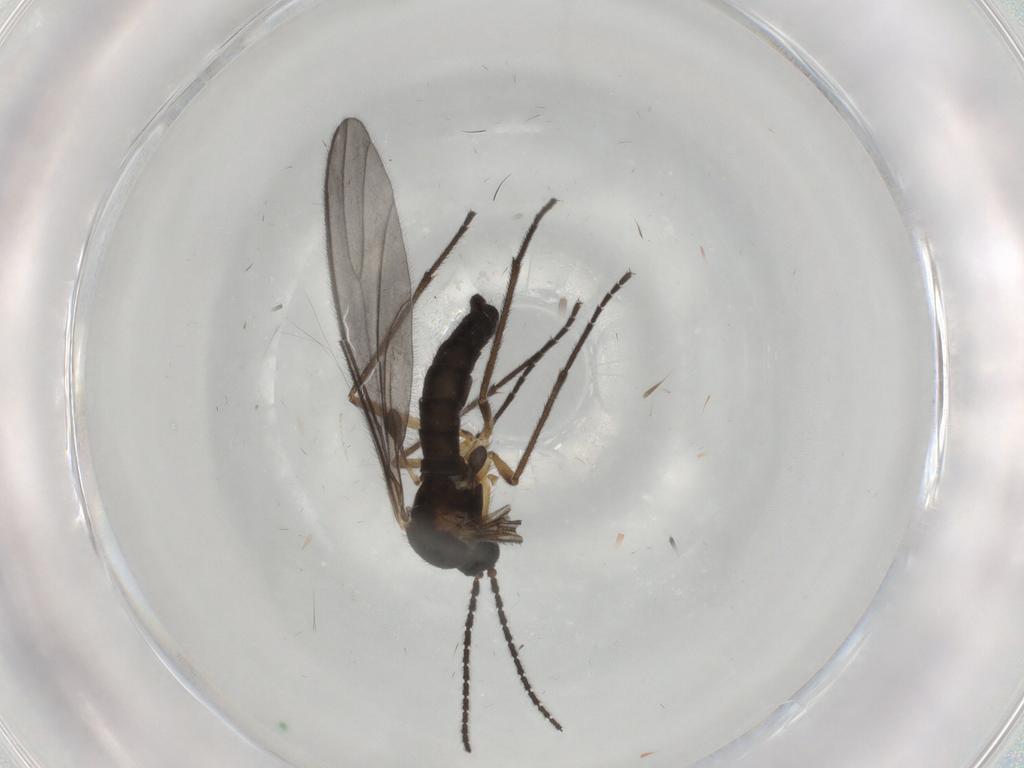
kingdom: Animalia
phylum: Arthropoda
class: Insecta
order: Diptera
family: Sciaridae
